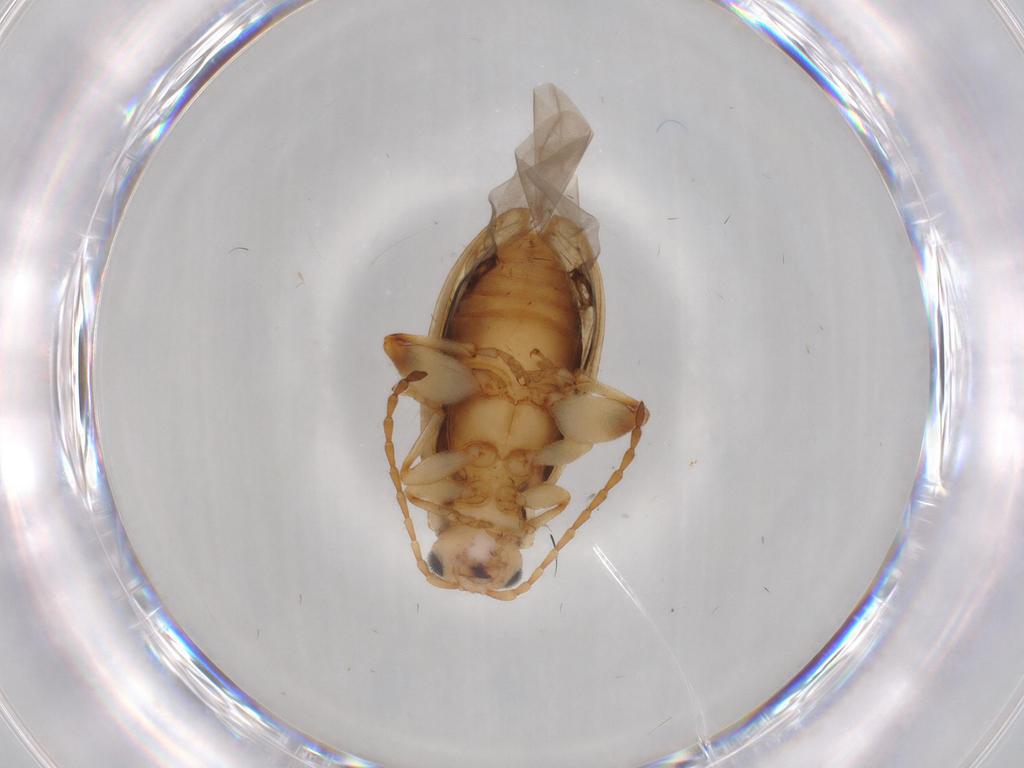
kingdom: Animalia
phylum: Arthropoda
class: Insecta
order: Coleoptera
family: Chrysomelidae
